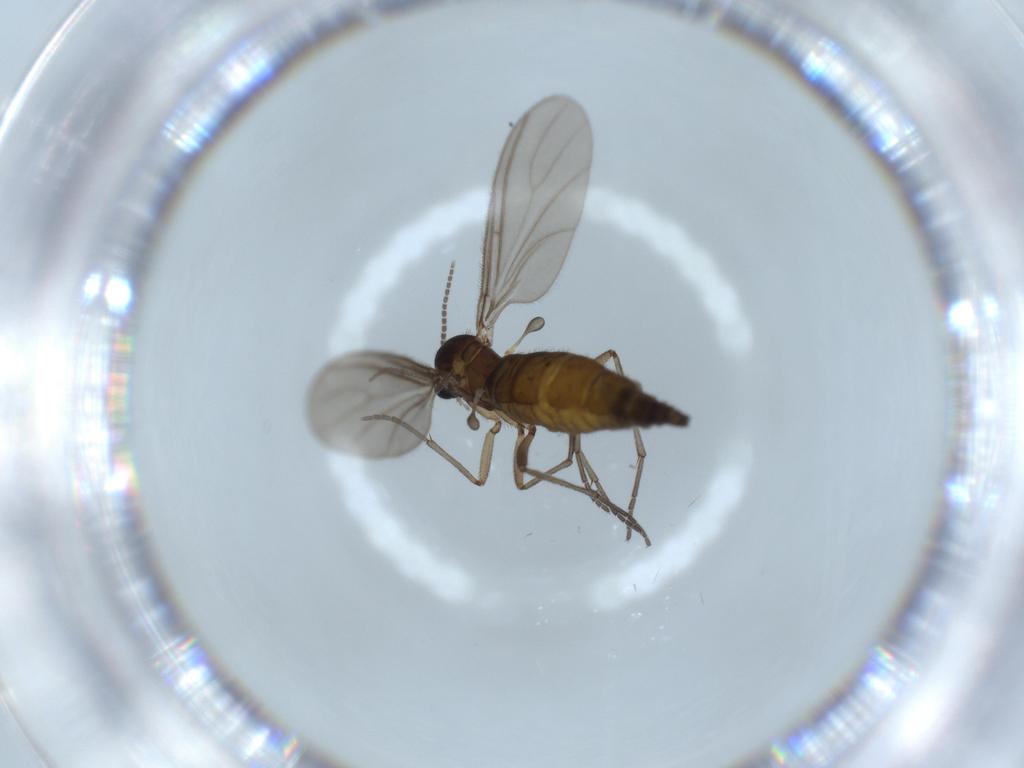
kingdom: Animalia
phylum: Arthropoda
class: Insecta
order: Diptera
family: Sciaridae
